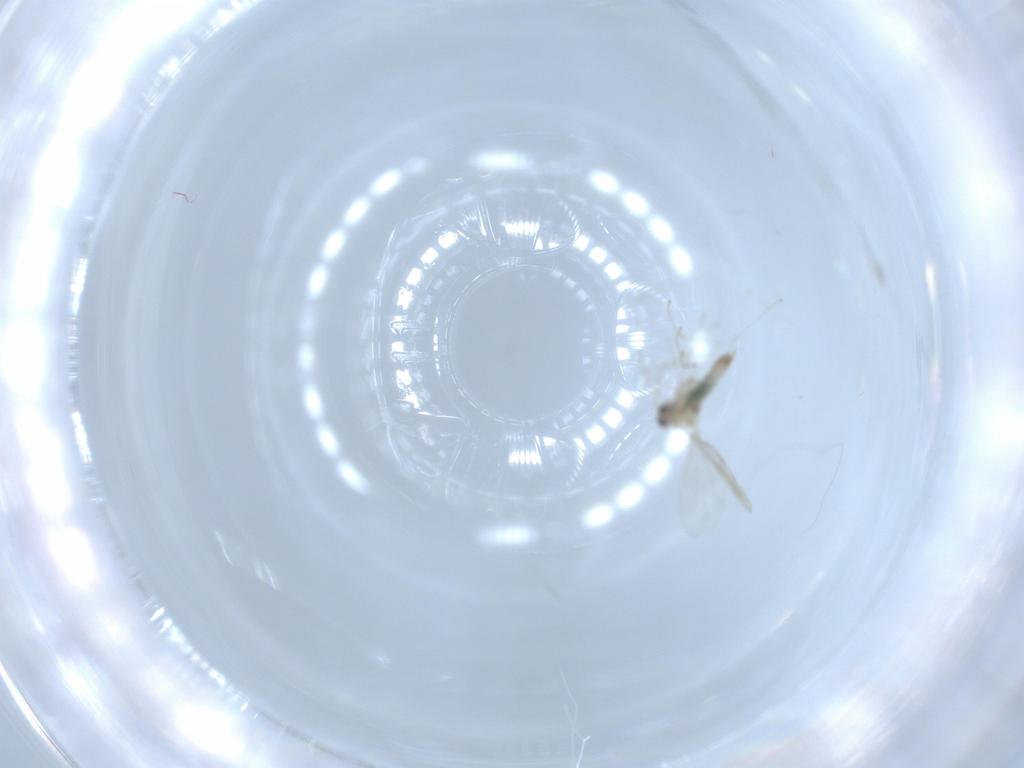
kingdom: Animalia
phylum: Arthropoda
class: Insecta
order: Diptera
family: Cecidomyiidae
